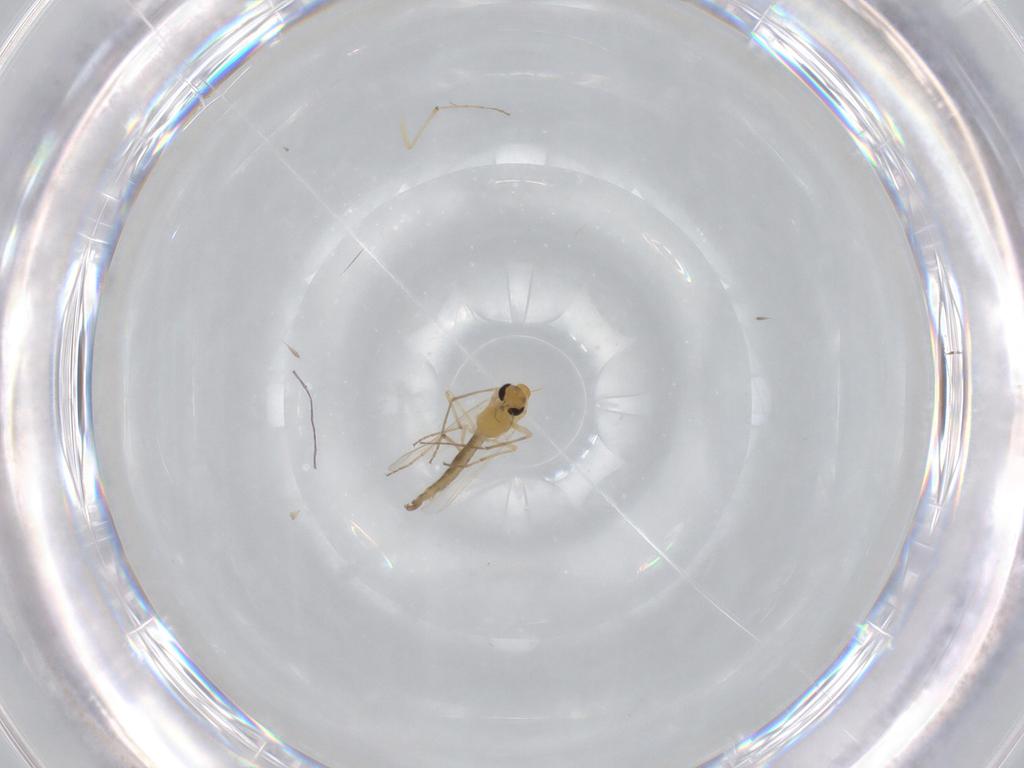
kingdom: Animalia
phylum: Arthropoda
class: Insecta
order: Diptera
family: Chironomidae
